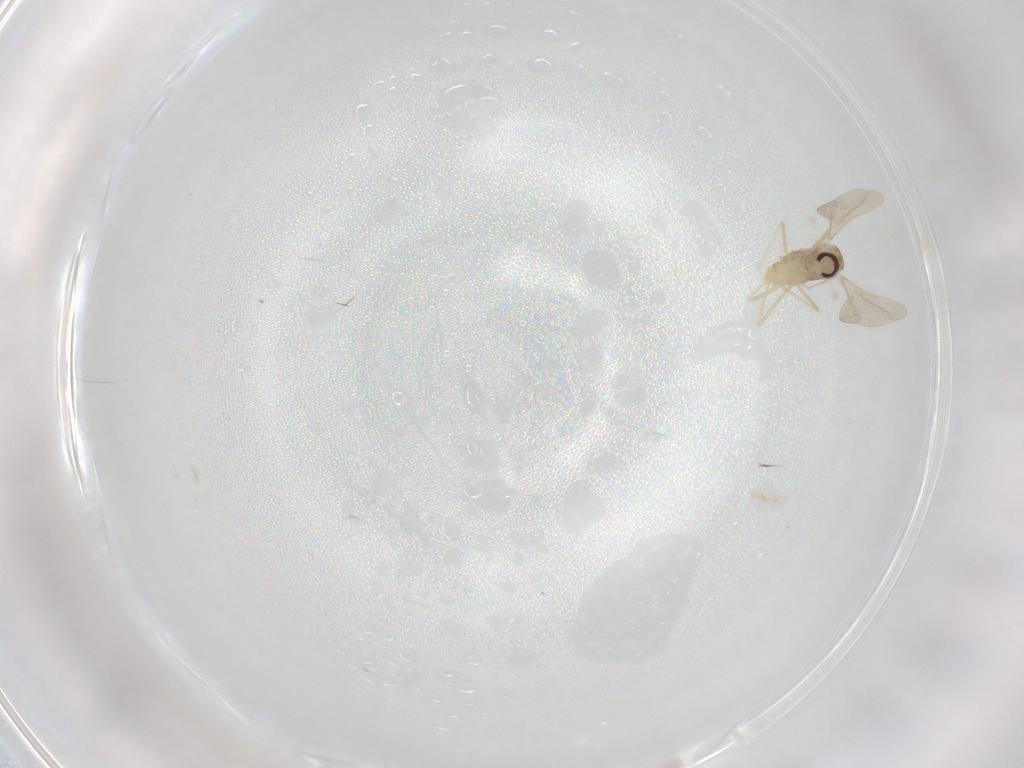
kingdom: Animalia
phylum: Arthropoda
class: Insecta
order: Diptera
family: Cecidomyiidae
